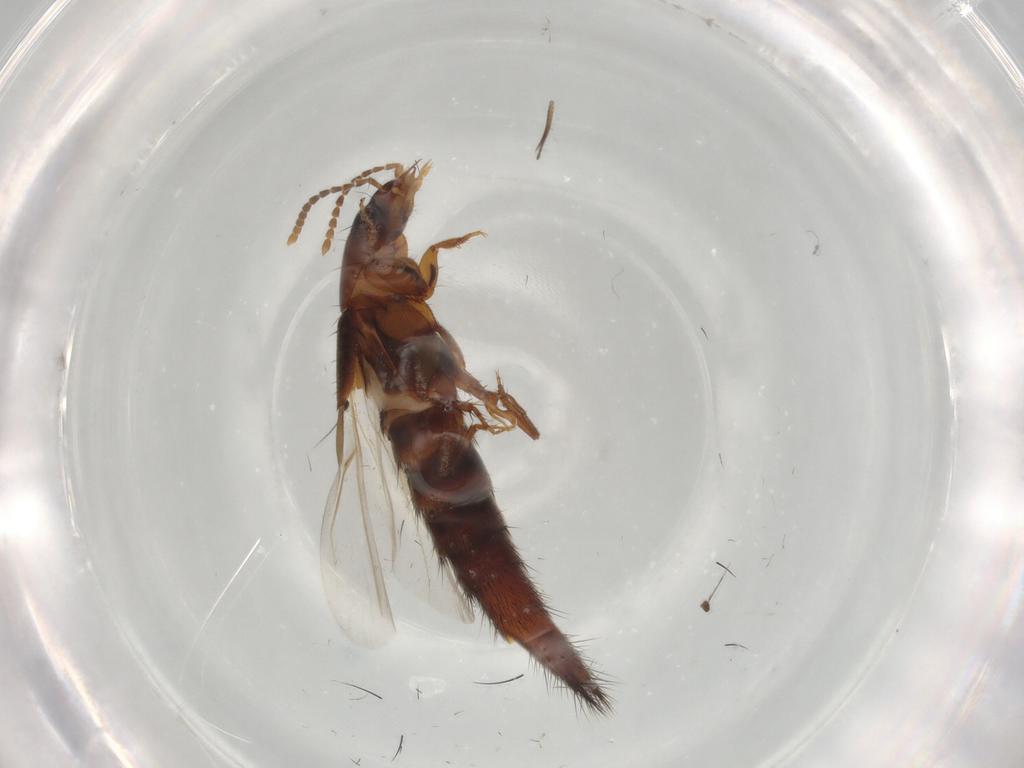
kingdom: Animalia
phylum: Arthropoda
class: Insecta
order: Coleoptera
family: Staphylinidae
